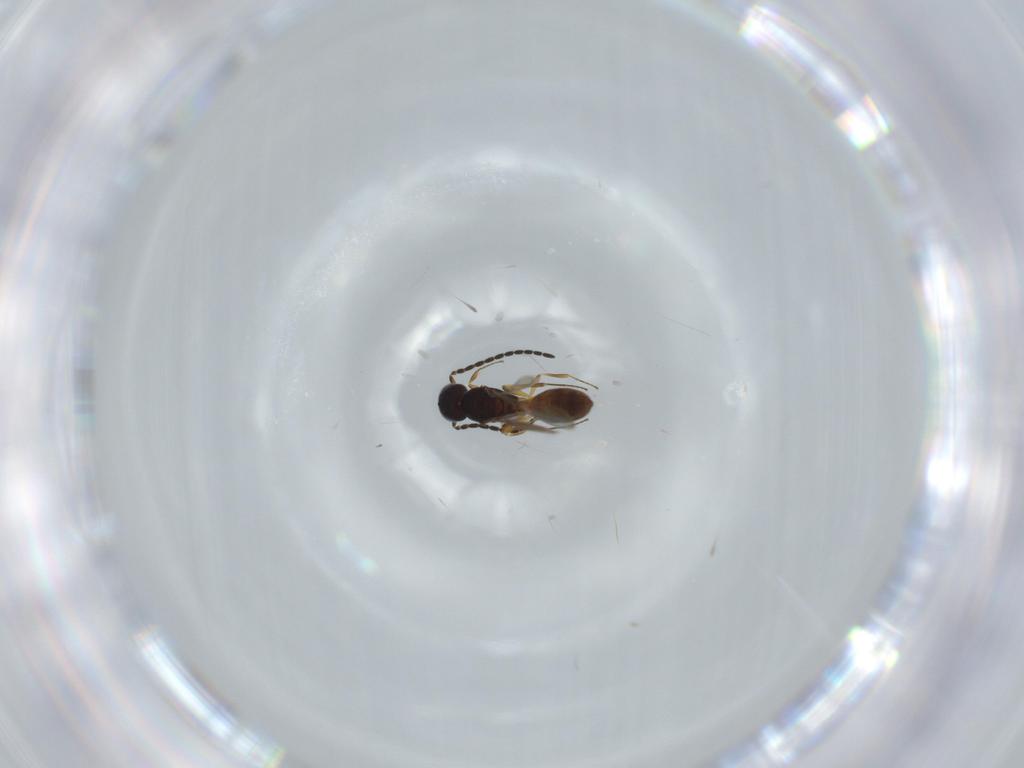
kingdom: Animalia
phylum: Arthropoda
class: Insecta
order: Hymenoptera
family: Scelionidae
